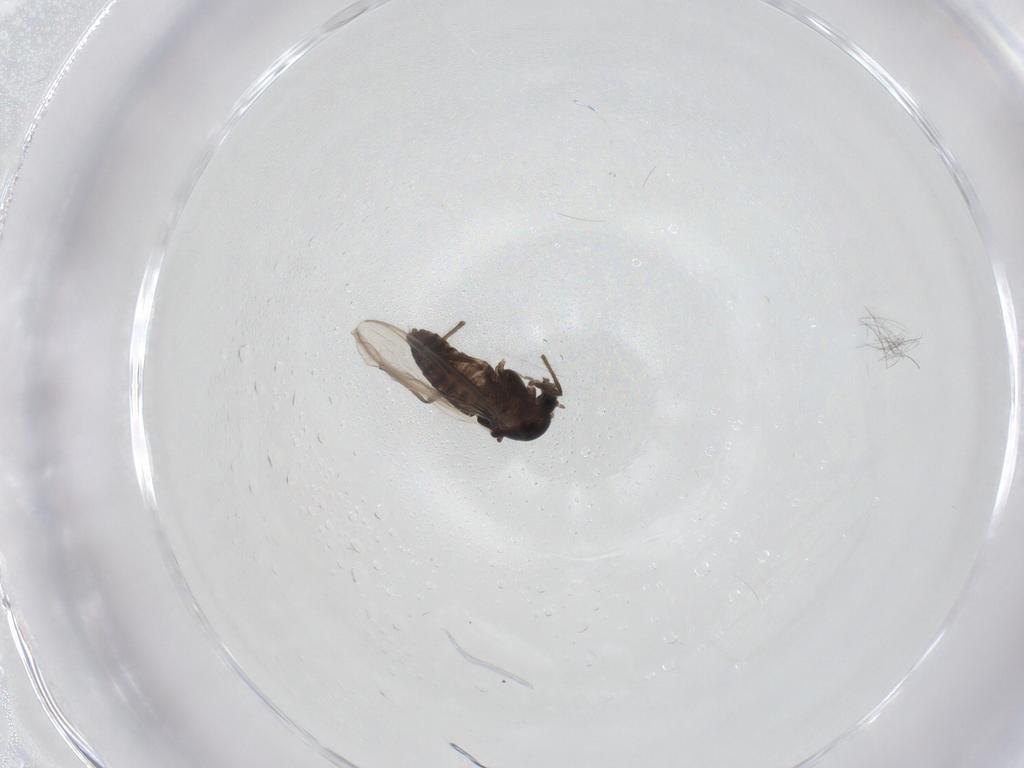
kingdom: Animalia
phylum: Arthropoda
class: Insecta
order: Diptera
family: Chironomidae
